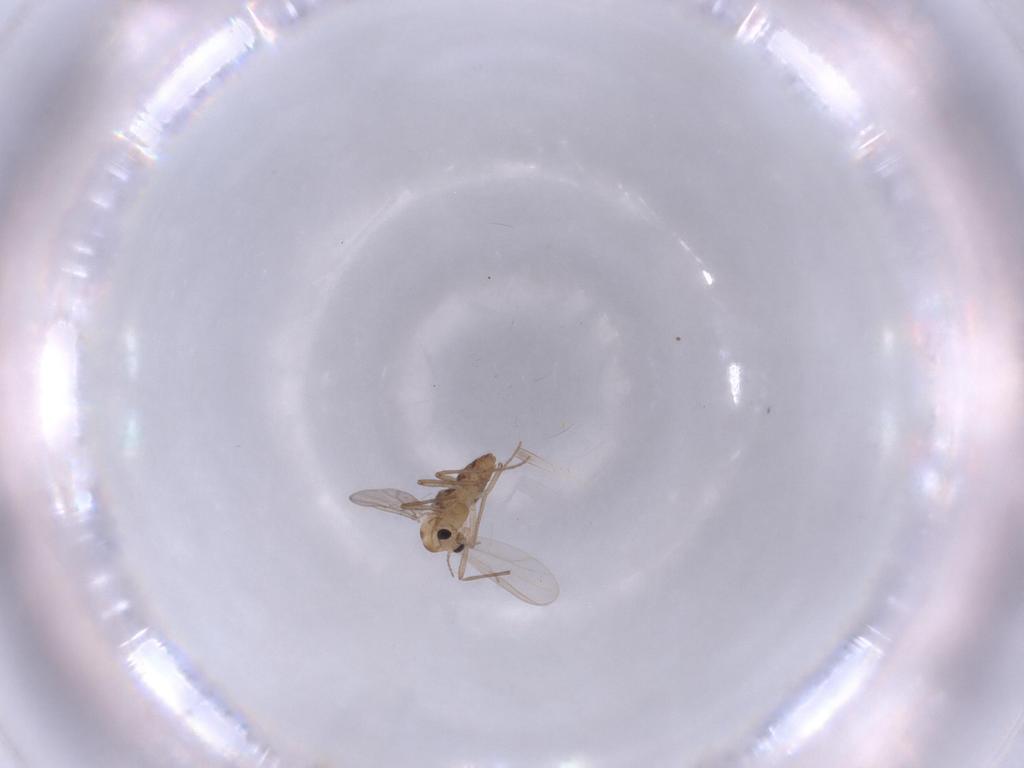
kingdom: Animalia
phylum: Arthropoda
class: Insecta
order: Diptera
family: Chironomidae
